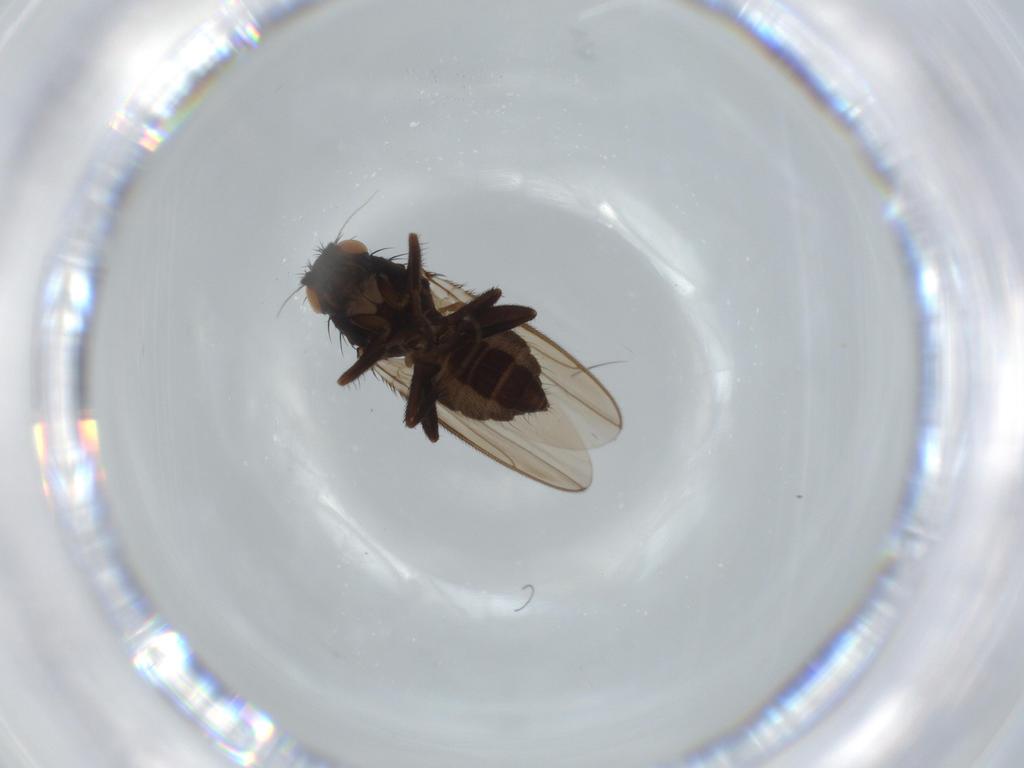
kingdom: Animalia
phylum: Arthropoda
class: Insecta
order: Diptera
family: Sphaeroceridae
